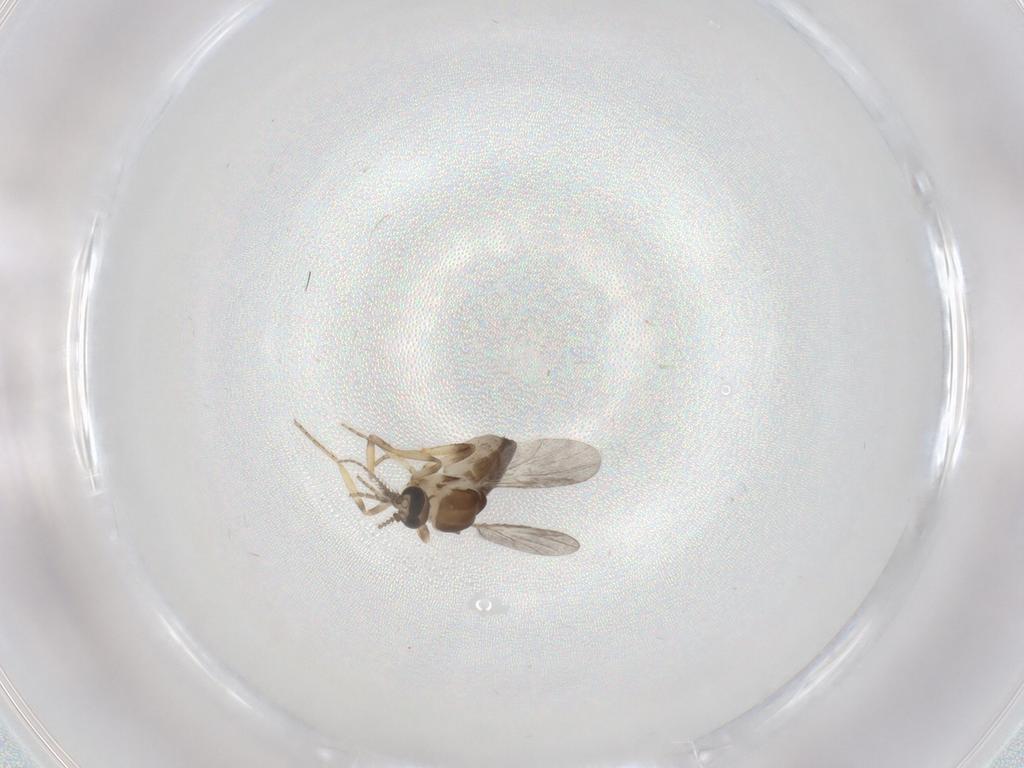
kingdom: Animalia
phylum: Arthropoda
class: Insecta
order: Diptera
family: Ceratopogonidae
